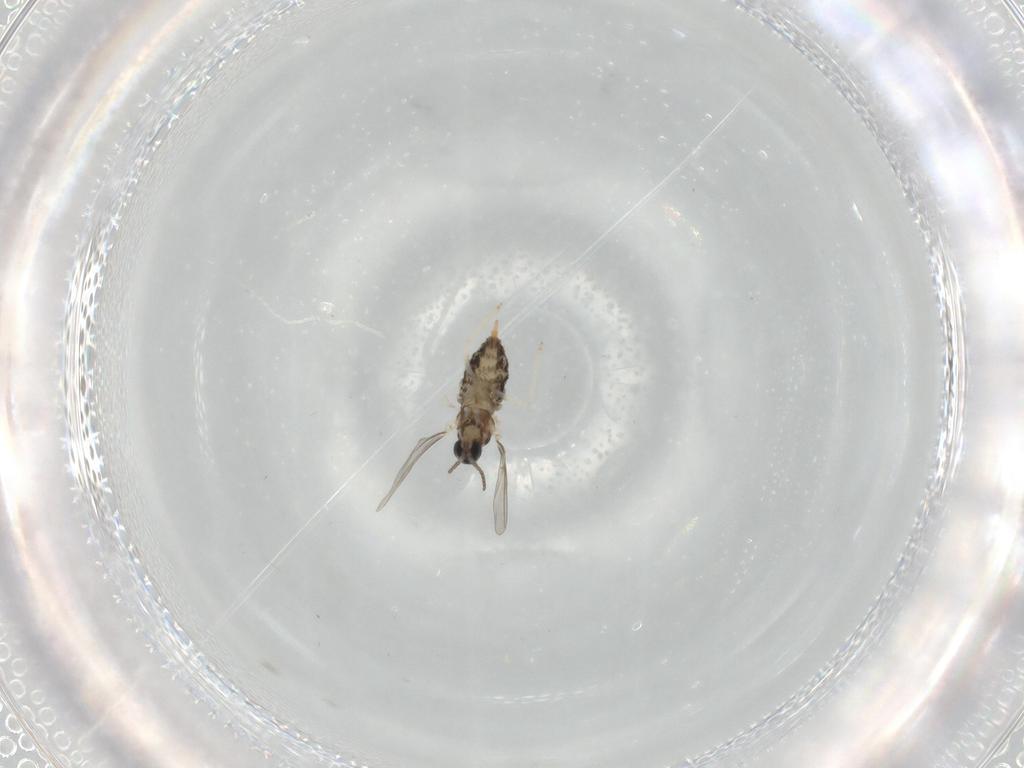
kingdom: Animalia
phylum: Arthropoda
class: Insecta
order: Diptera
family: Cecidomyiidae
